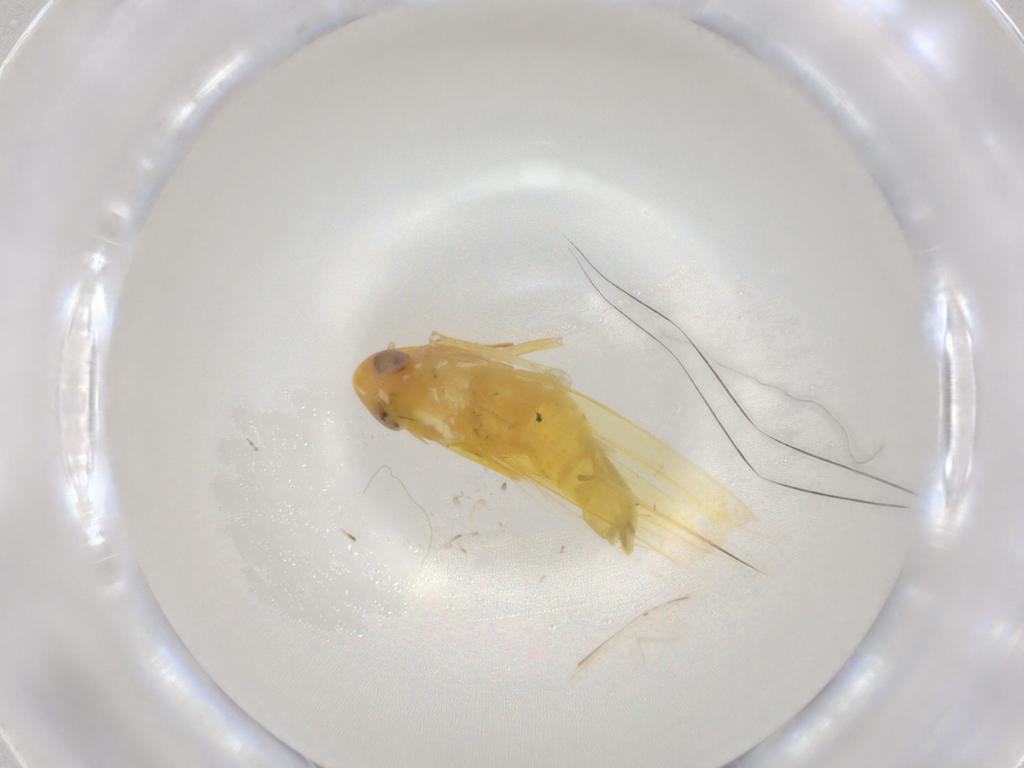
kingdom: Animalia
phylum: Arthropoda
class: Insecta
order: Hemiptera
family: Cicadellidae
